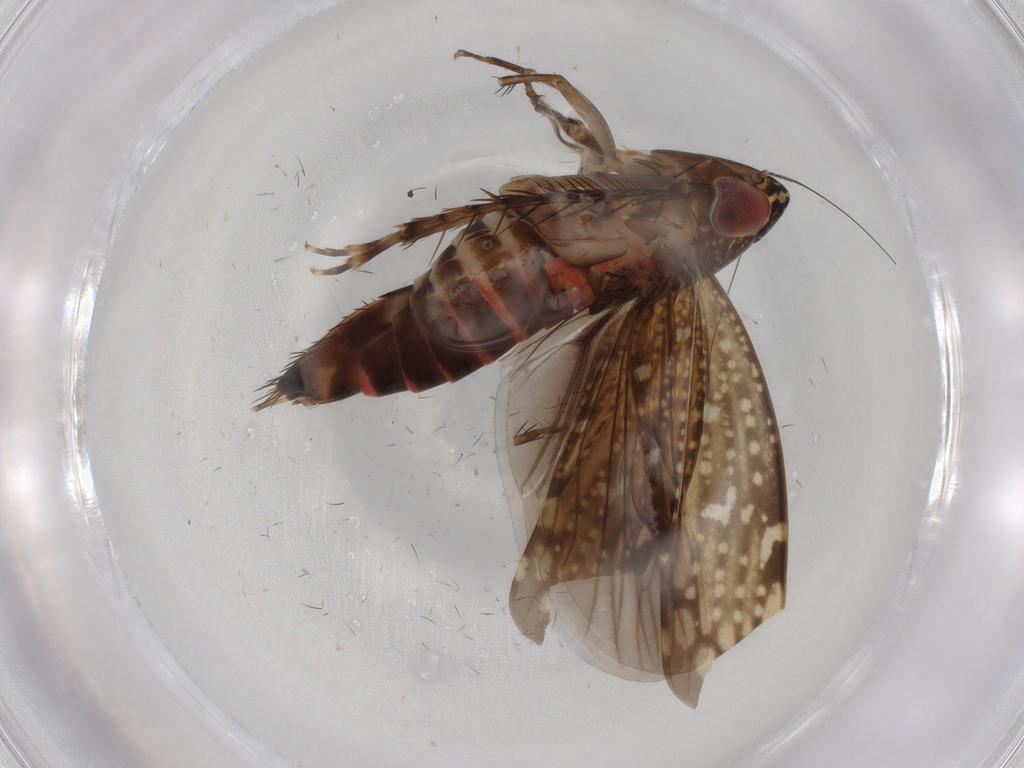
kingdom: Animalia
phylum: Arthropoda
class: Insecta
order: Hemiptera
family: Cicadellidae
